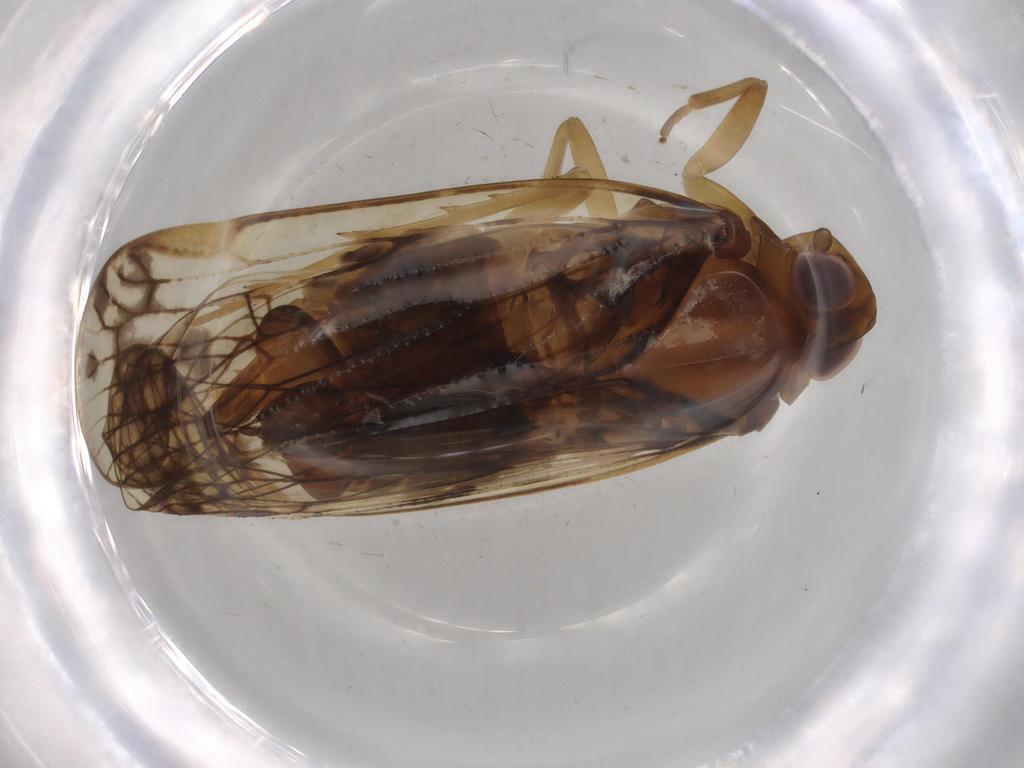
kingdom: Animalia
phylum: Arthropoda
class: Insecta
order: Hemiptera
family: Cixiidae
